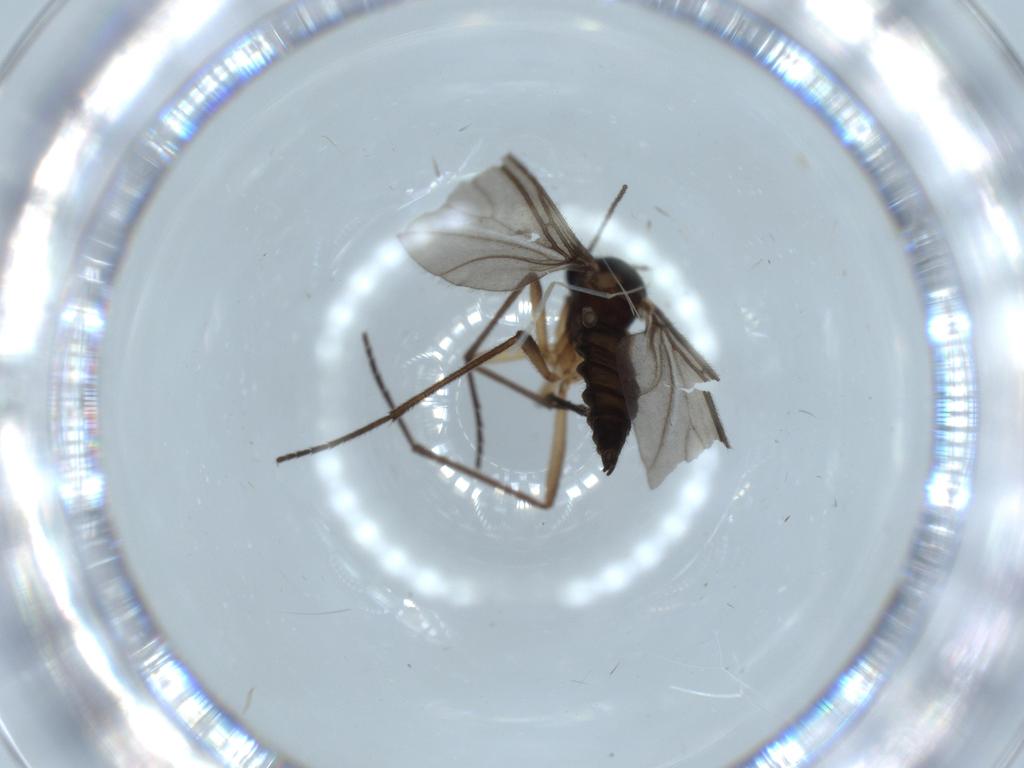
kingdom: Animalia
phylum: Arthropoda
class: Insecta
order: Diptera
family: Cecidomyiidae
